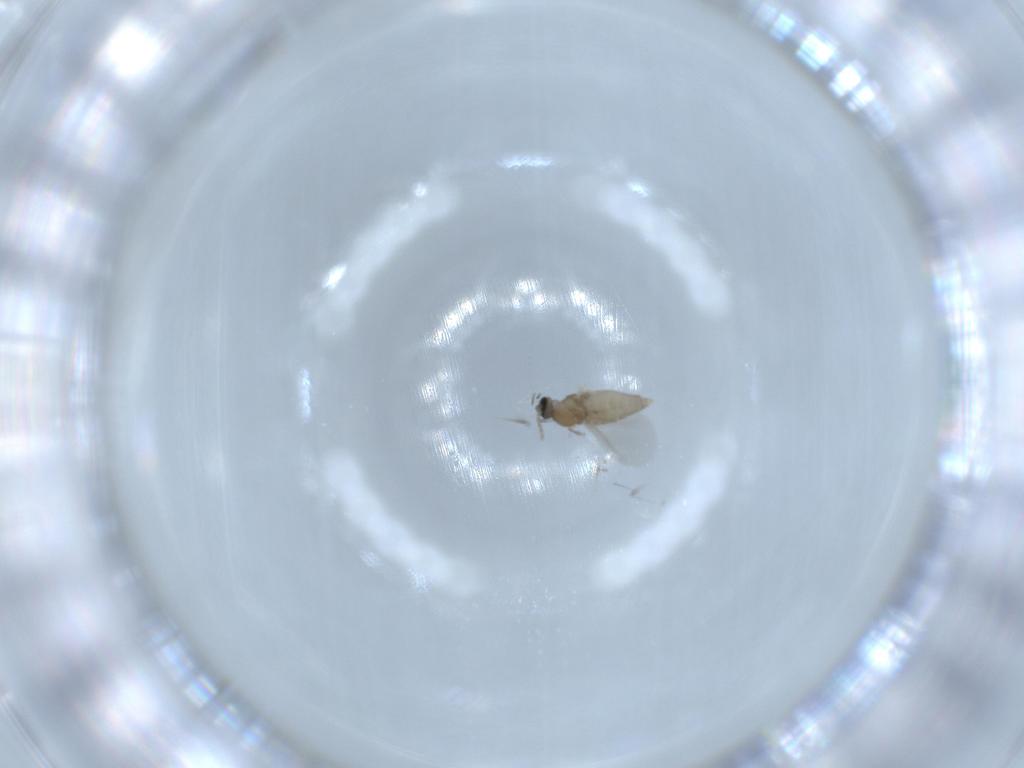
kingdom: Animalia
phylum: Arthropoda
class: Insecta
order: Diptera
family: Cecidomyiidae
